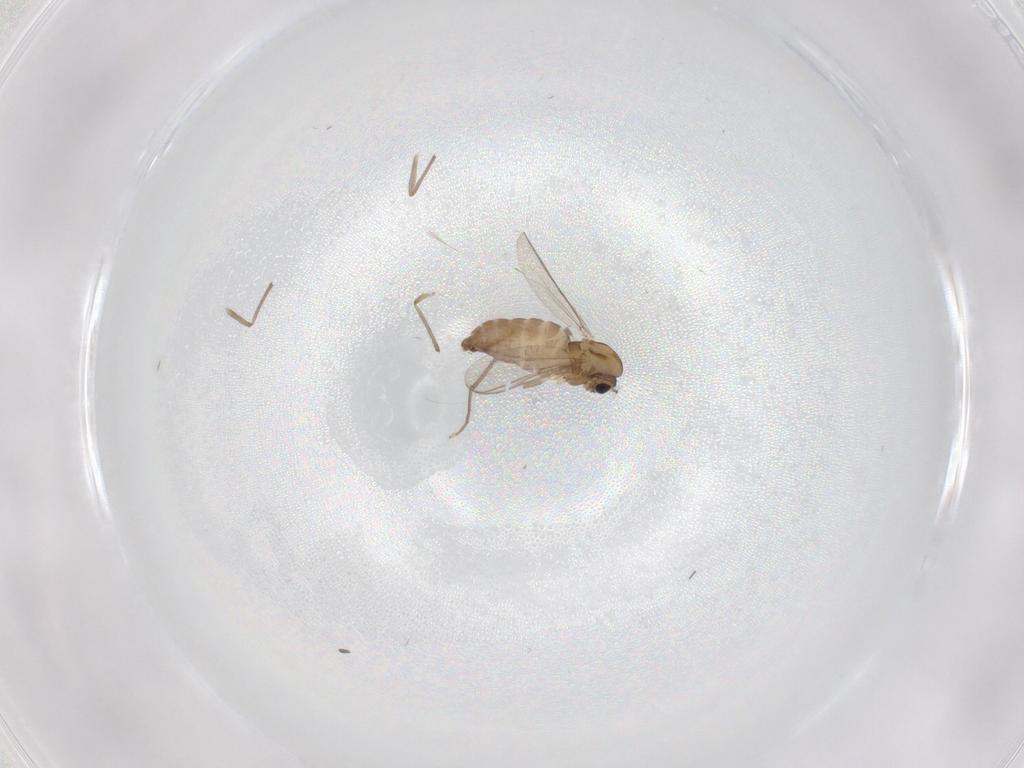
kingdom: Animalia
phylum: Arthropoda
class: Insecta
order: Diptera
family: Chironomidae
